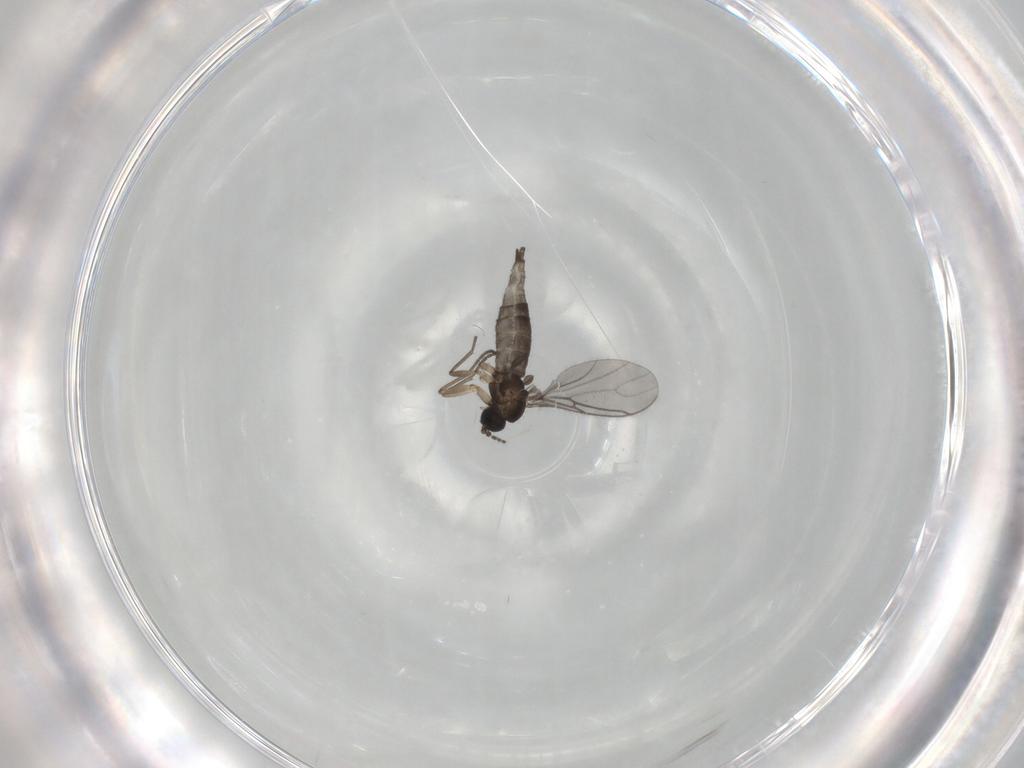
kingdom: Animalia
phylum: Arthropoda
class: Insecta
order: Diptera
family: Sciaridae
